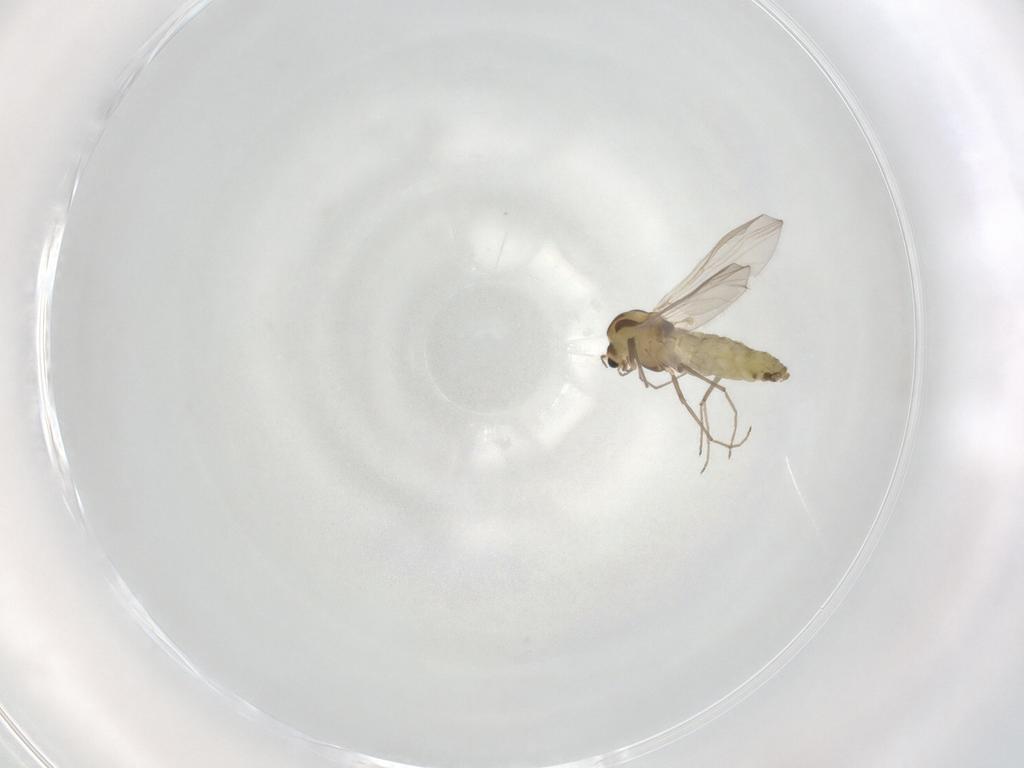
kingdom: Animalia
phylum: Arthropoda
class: Insecta
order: Diptera
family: Chironomidae
